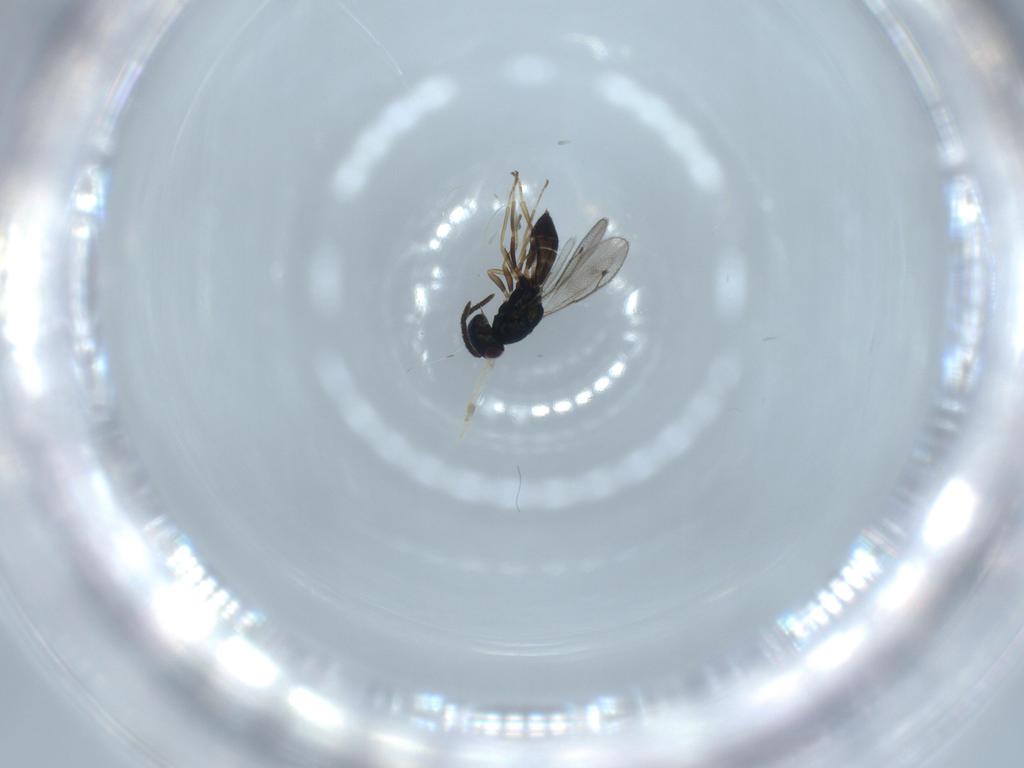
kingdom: Animalia
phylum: Arthropoda
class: Insecta
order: Hymenoptera
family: Pteromalidae
